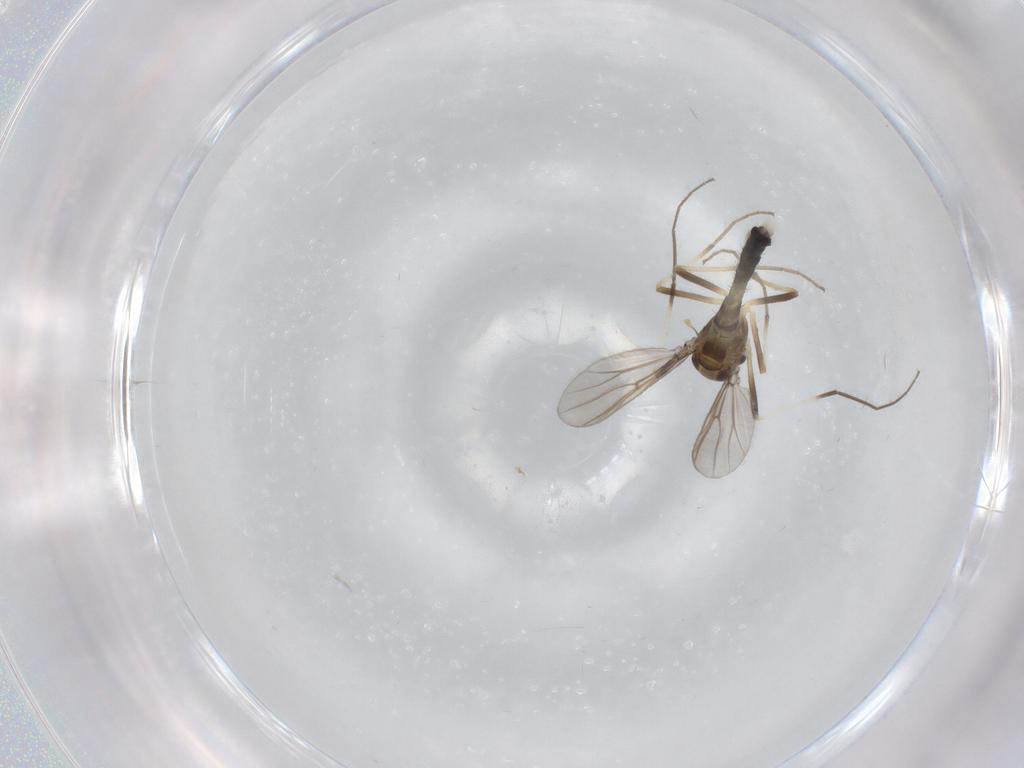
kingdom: Animalia
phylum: Arthropoda
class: Insecta
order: Diptera
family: Chironomidae
